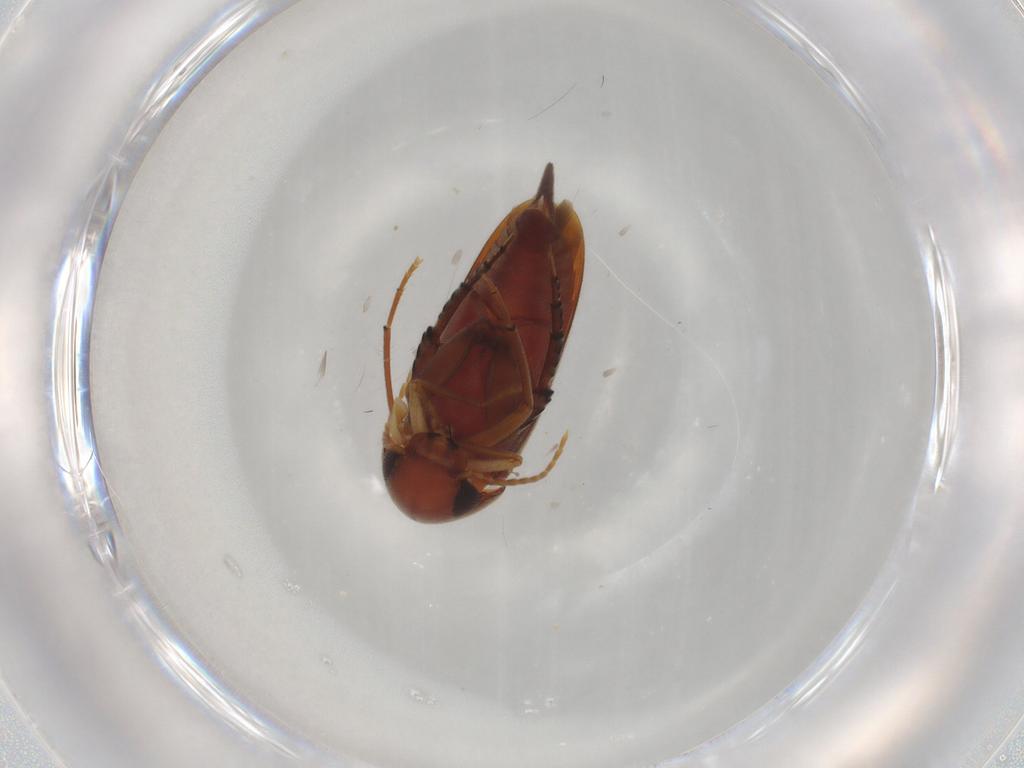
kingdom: Animalia
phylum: Arthropoda
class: Insecta
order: Coleoptera
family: Mordellidae
